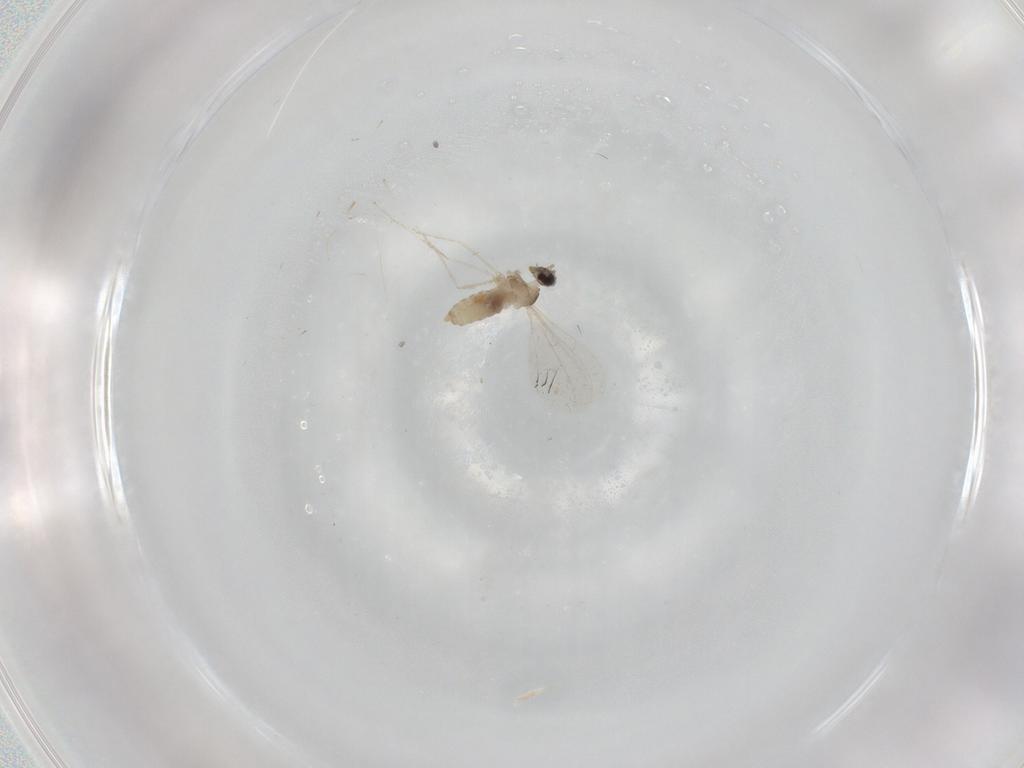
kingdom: Animalia
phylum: Arthropoda
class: Insecta
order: Diptera
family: Cecidomyiidae
